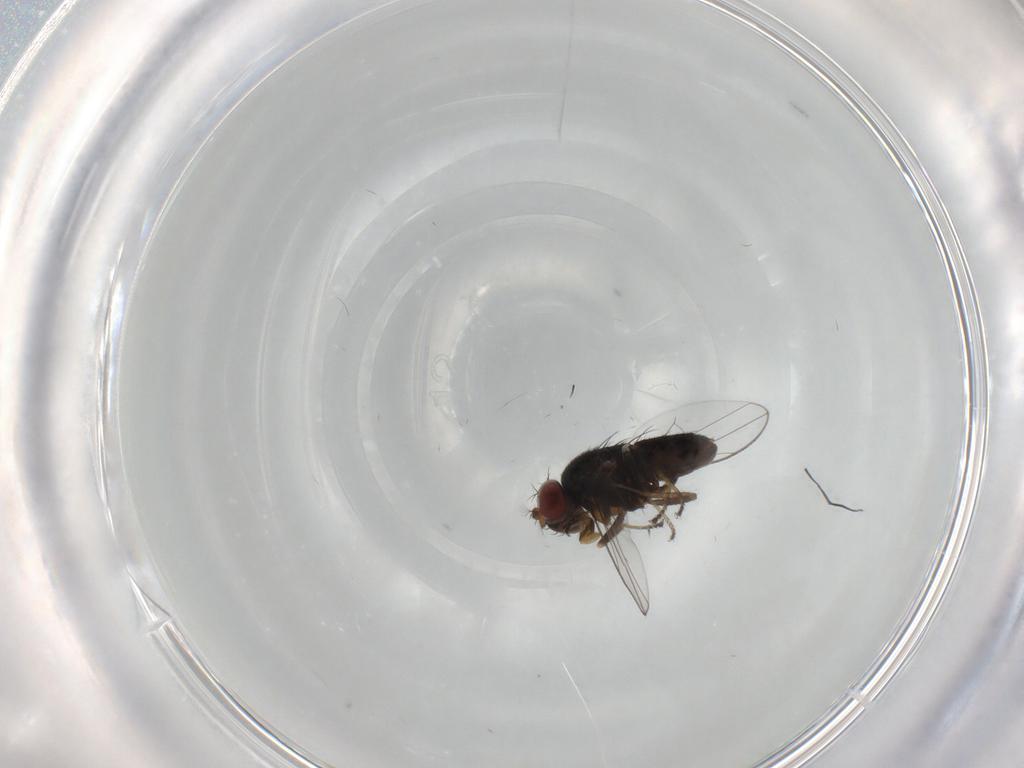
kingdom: Animalia
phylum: Arthropoda
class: Insecta
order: Diptera
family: Ephydridae
